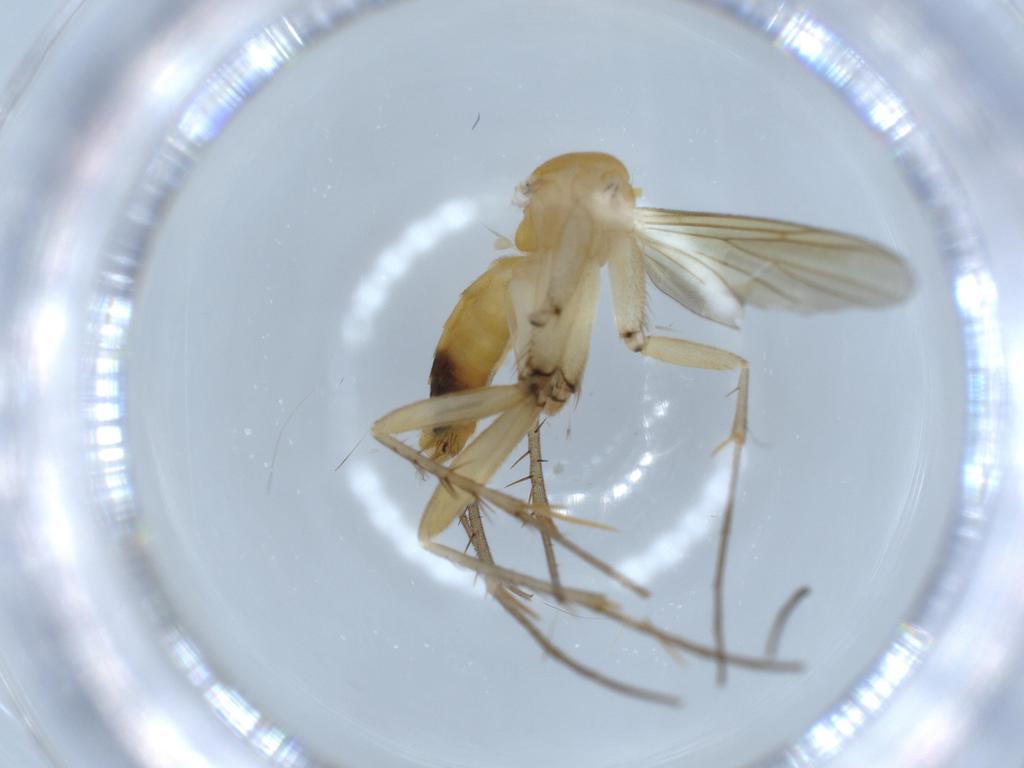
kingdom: Animalia
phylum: Arthropoda
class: Insecta
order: Diptera
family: Mycetophilidae
